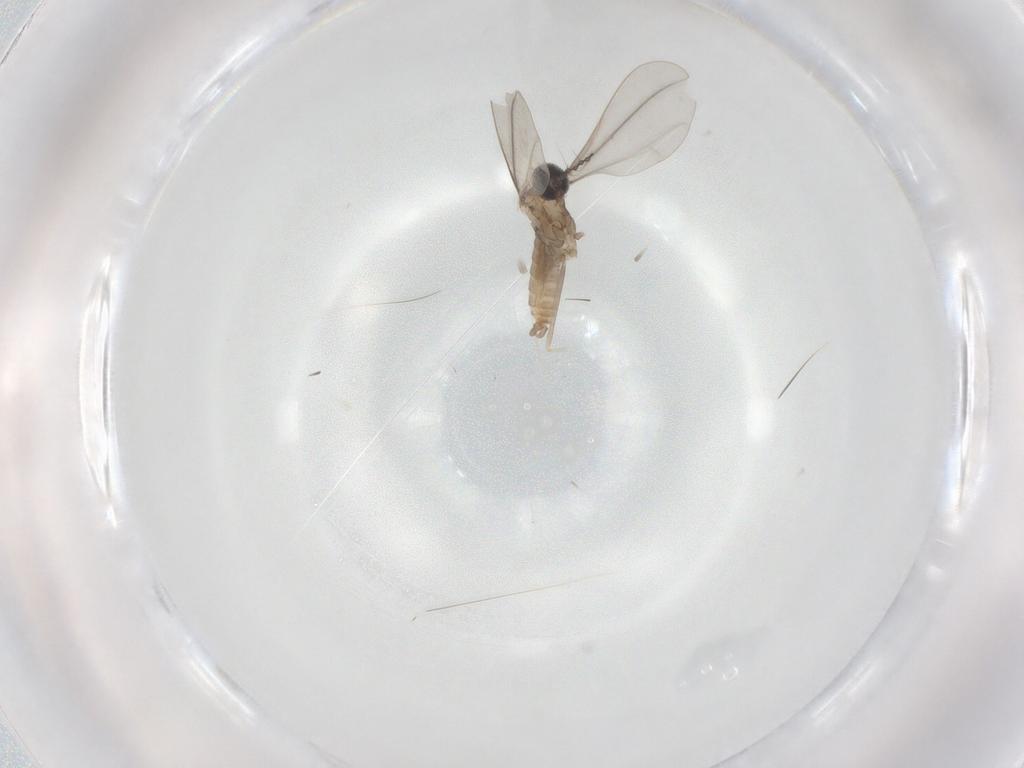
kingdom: Animalia
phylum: Arthropoda
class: Insecta
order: Diptera
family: Cecidomyiidae
